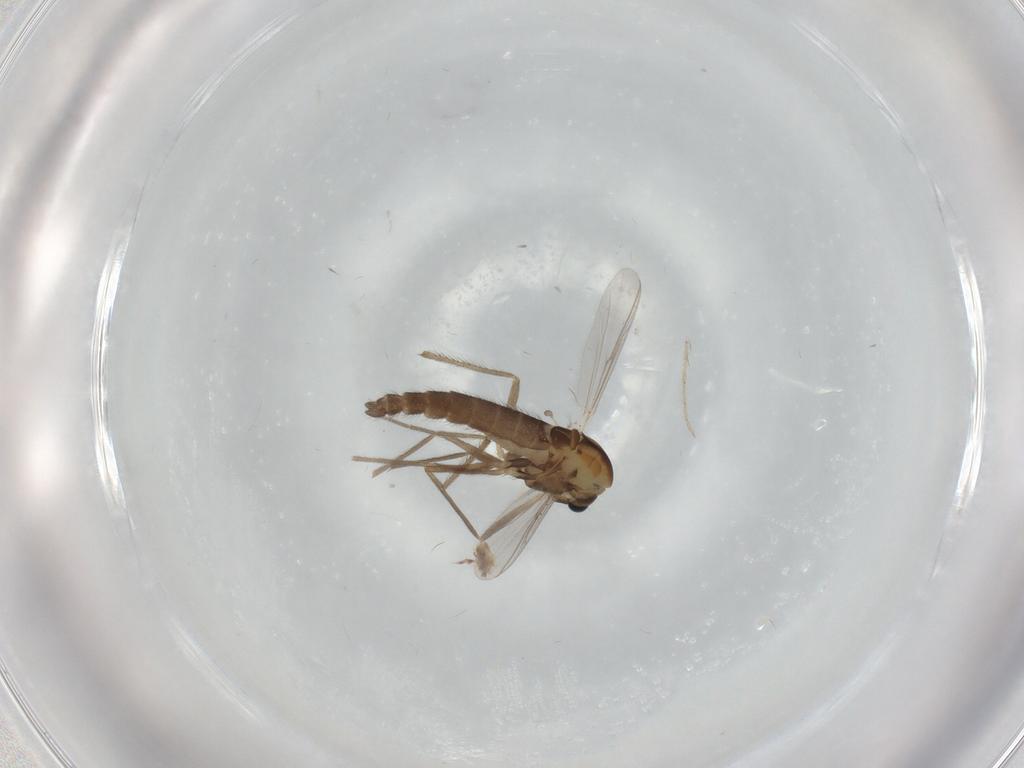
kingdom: Animalia
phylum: Arthropoda
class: Insecta
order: Diptera
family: Chironomidae
